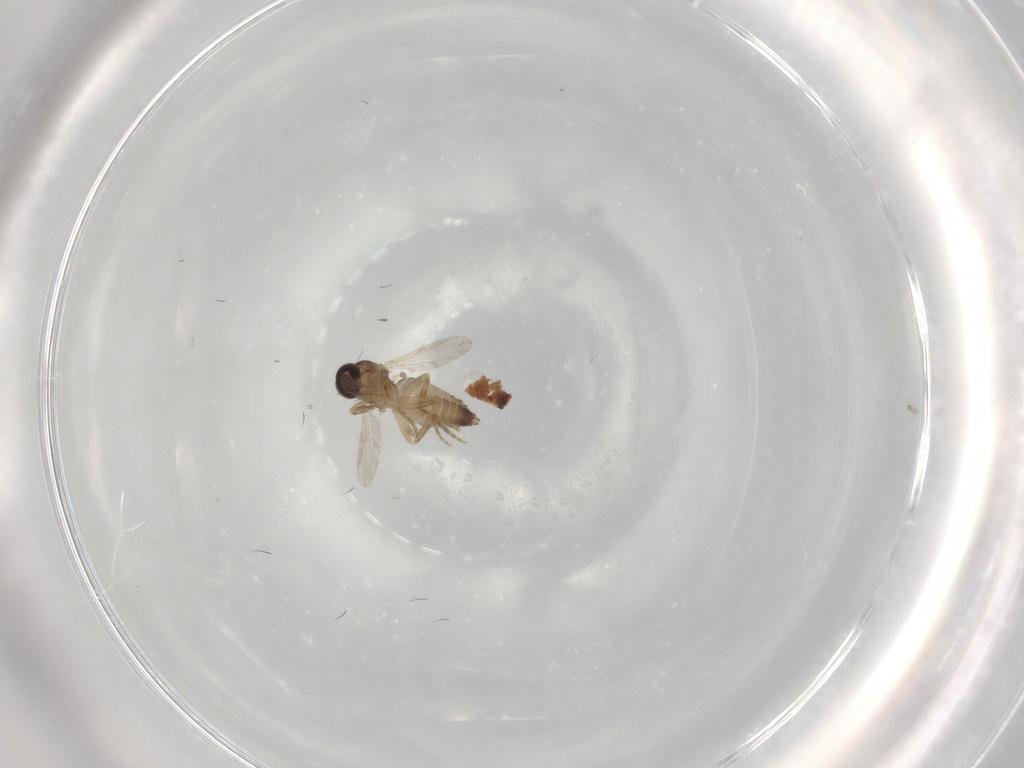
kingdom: Animalia
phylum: Arthropoda
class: Insecta
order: Diptera
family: Ceratopogonidae
